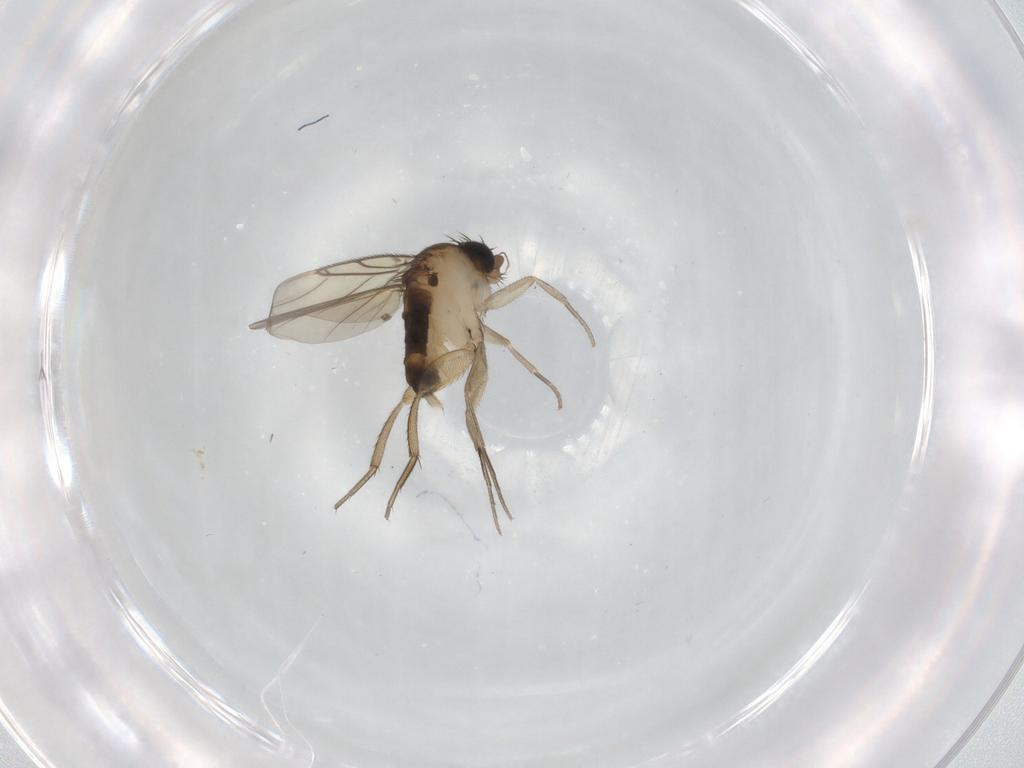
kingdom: Animalia
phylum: Arthropoda
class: Insecta
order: Diptera
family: Phoridae
